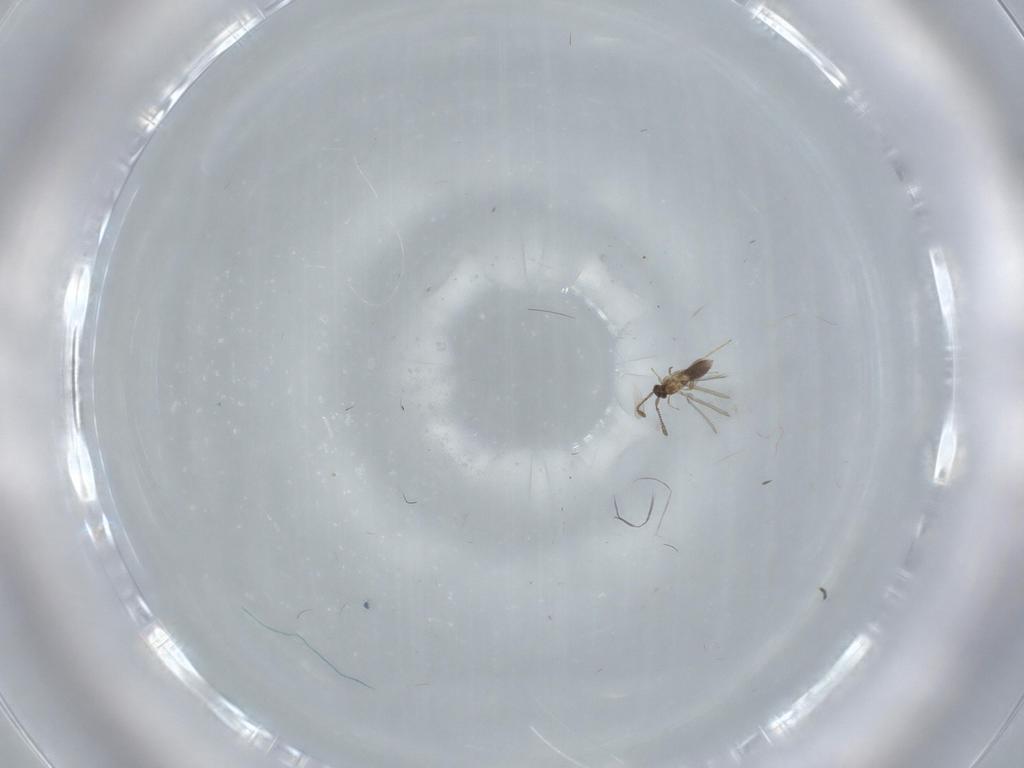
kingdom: Animalia
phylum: Arthropoda
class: Insecta
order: Hymenoptera
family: Mymaridae
